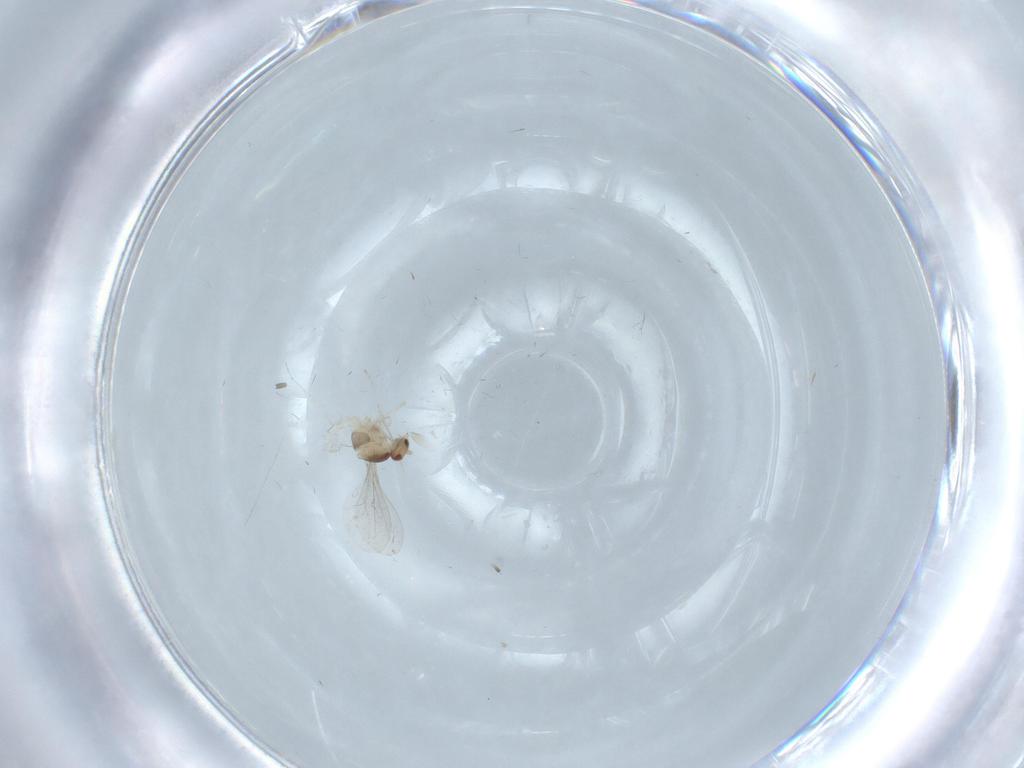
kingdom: Animalia
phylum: Arthropoda
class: Insecta
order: Diptera
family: Cecidomyiidae
